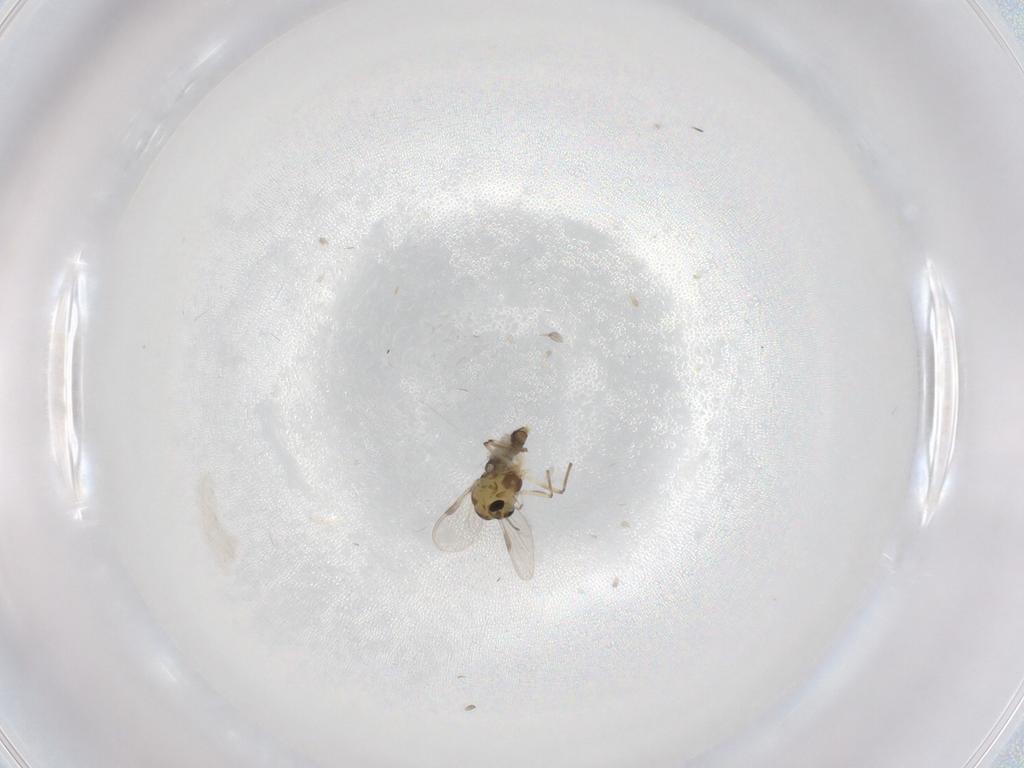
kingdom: Animalia
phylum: Arthropoda
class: Insecta
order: Diptera
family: Chironomidae
